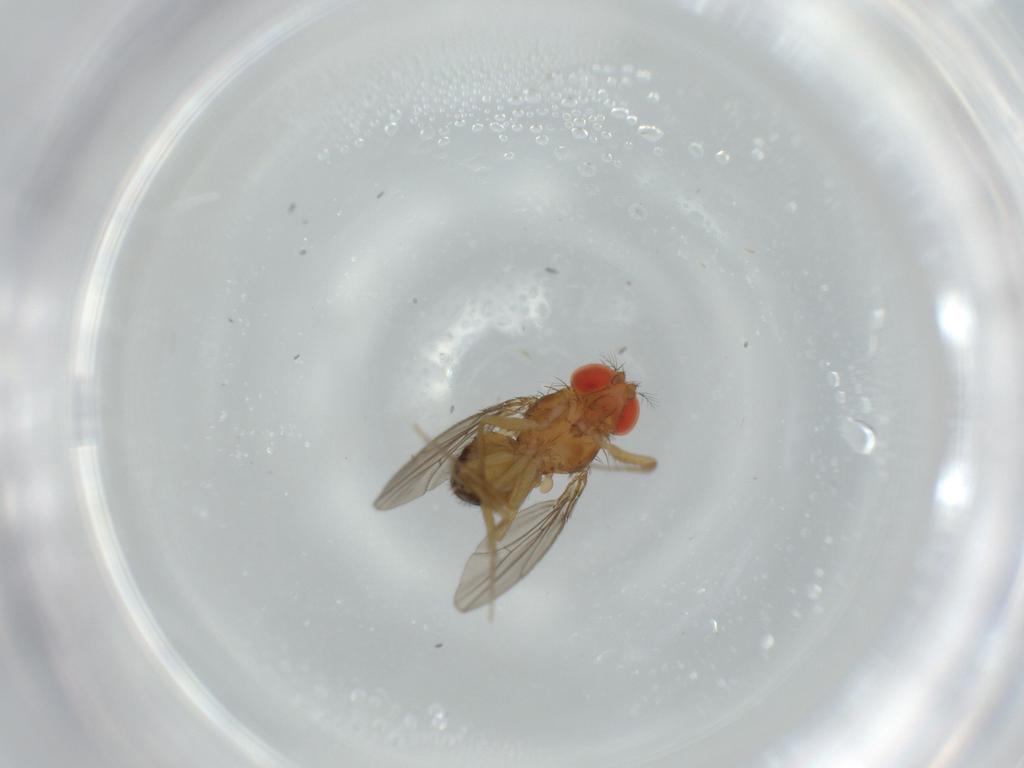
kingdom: Animalia
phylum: Arthropoda
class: Insecta
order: Diptera
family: Drosophilidae
